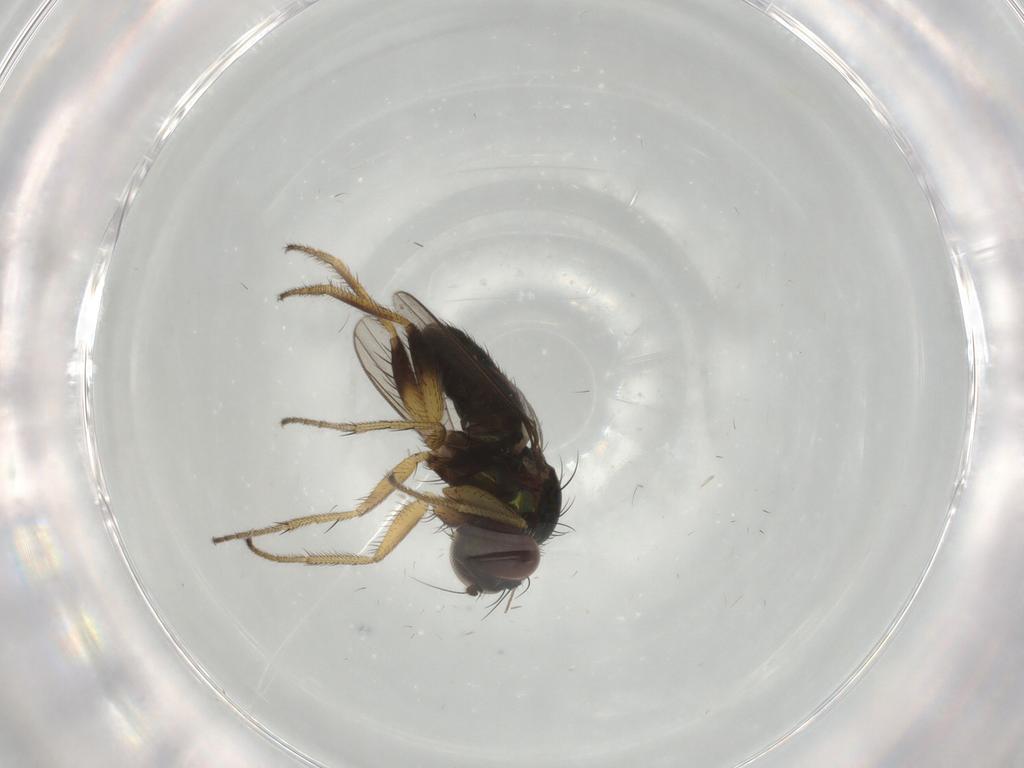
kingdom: Animalia
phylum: Arthropoda
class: Insecta
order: Diptera
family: Dolichopodidae
